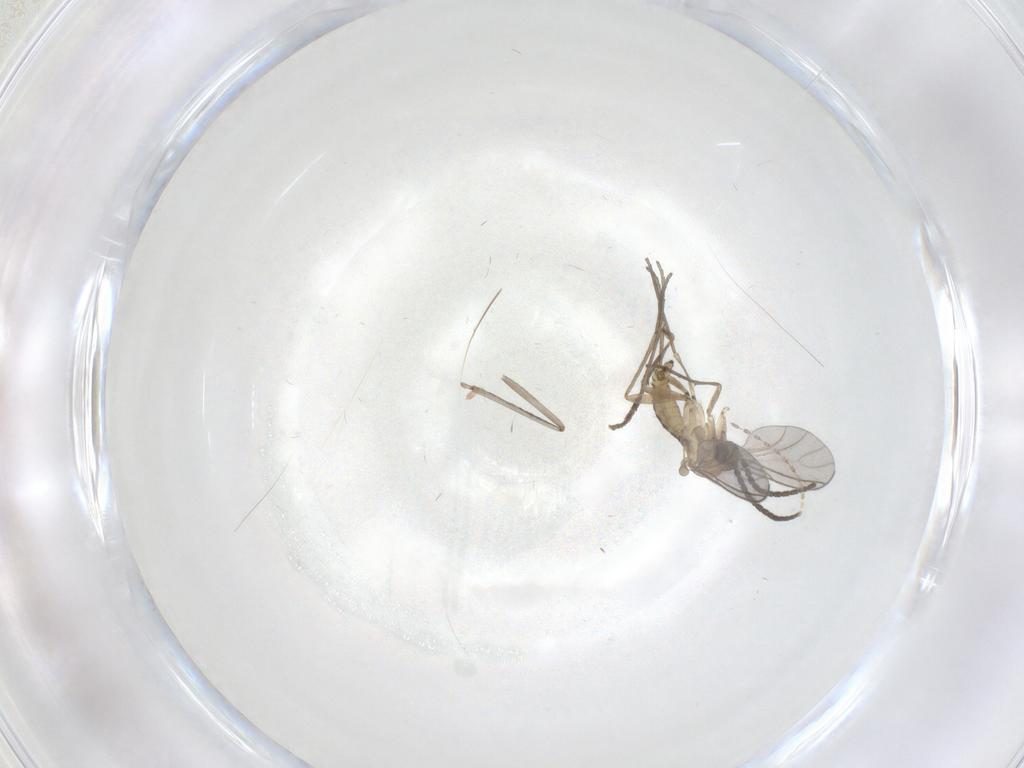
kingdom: Animalia
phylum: Arthropoda
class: Insecta
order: Diptera
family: Sciaridae
